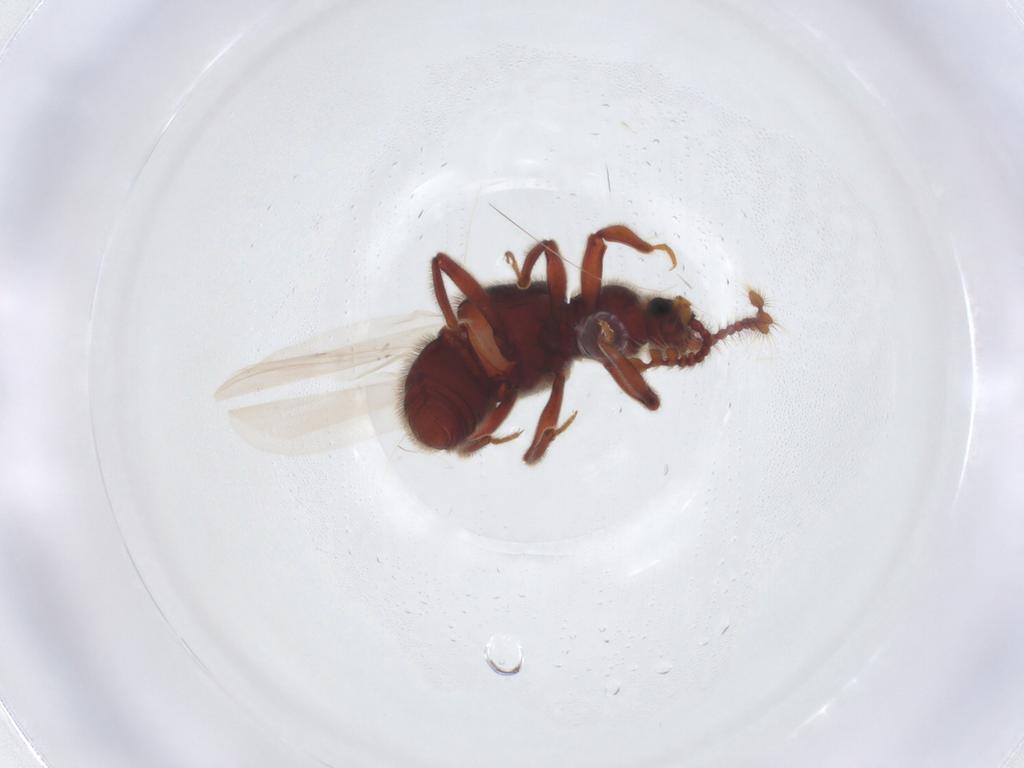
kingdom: Animalia
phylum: Arthropoda
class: Insecta
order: Coleoptera
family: Staphylinidae
